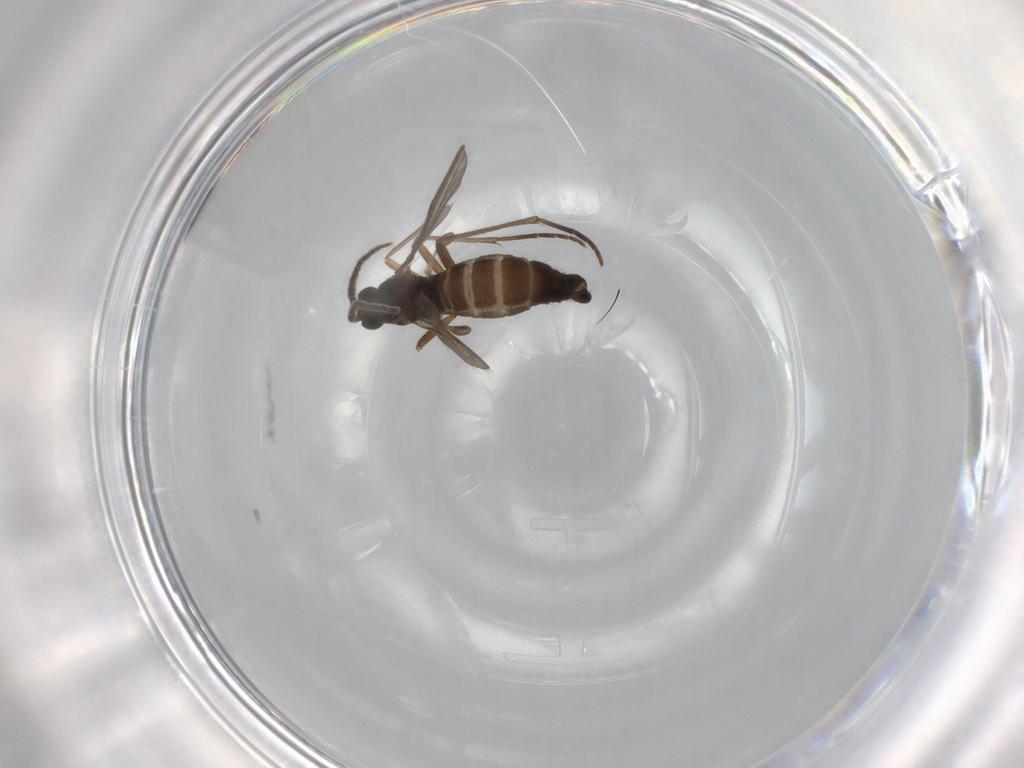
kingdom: Animalia
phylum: Arthropoda
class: Insecta
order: Diptera
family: Sciaridae
